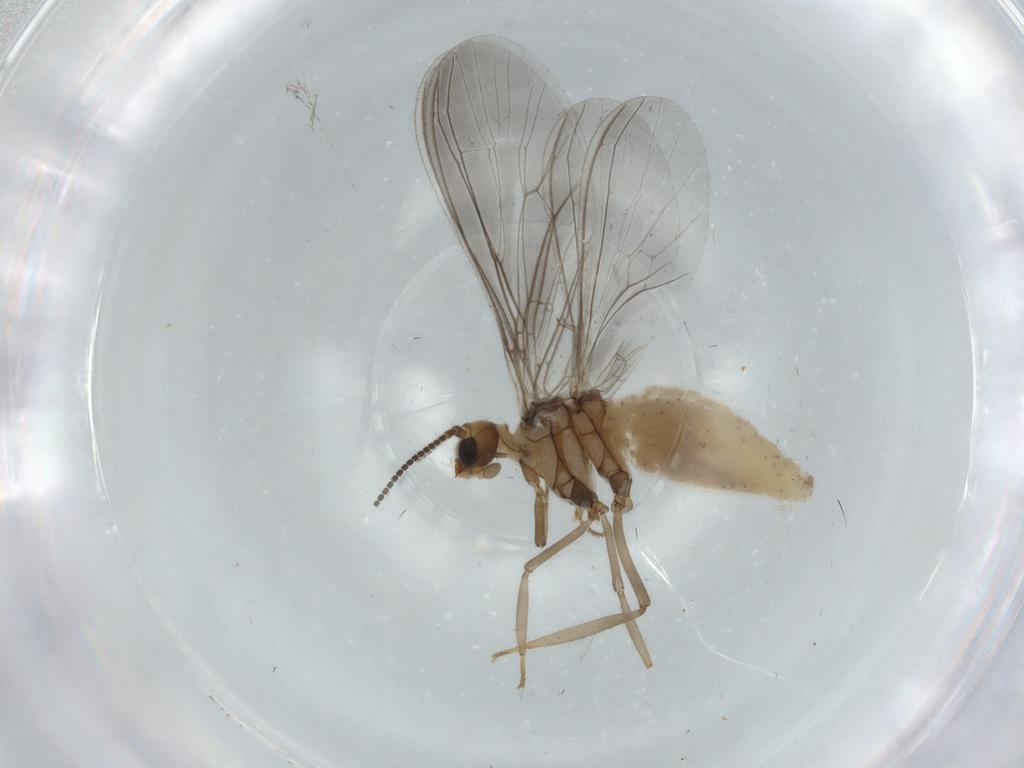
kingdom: Animalia
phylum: Arthropoda
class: Insecta
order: Neuroptera
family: Coniopterygidae
